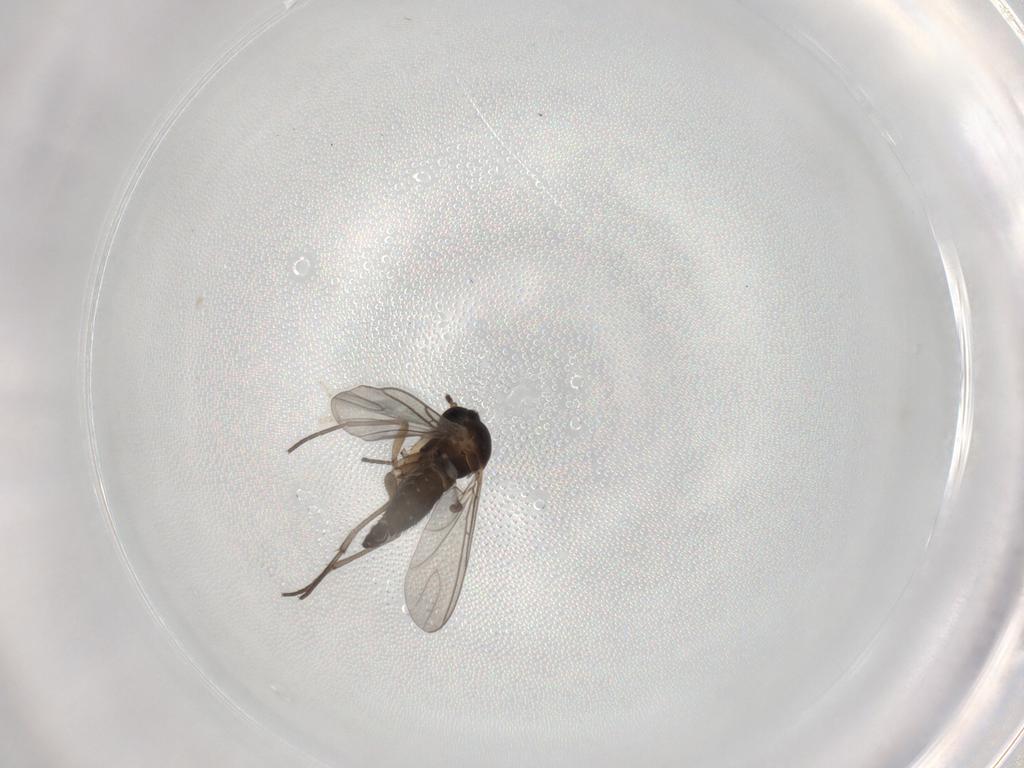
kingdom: Animalia
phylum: Arthropoda
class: Insecta
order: Diptera
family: Sciaridae
